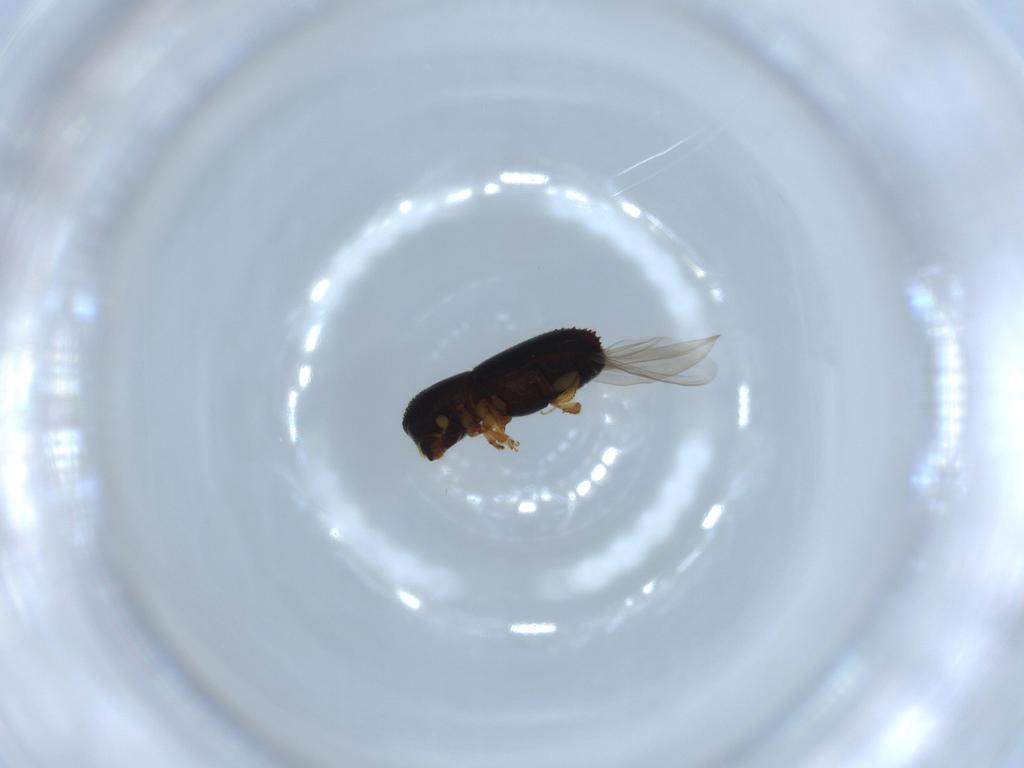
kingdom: Animalia
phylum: Arthropoda
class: Insecta
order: Coleoptera
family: Curculionidae
